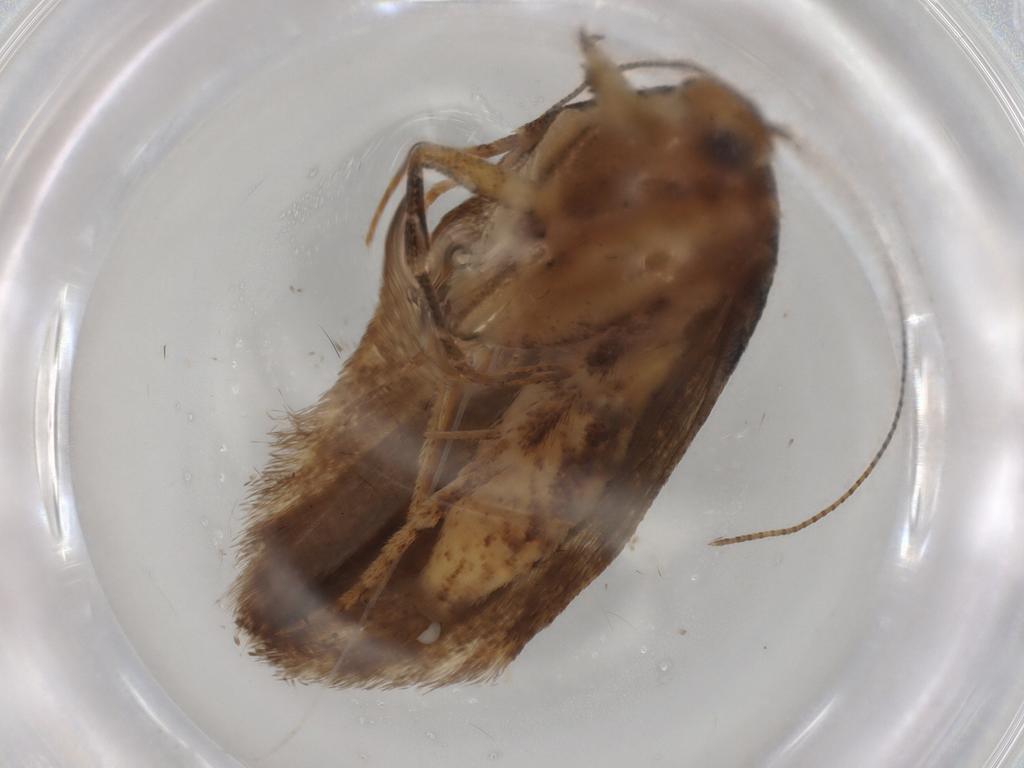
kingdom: Animalia
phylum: Arthropoda
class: Insecta
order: Lepidoptera
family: Gelechiidae
